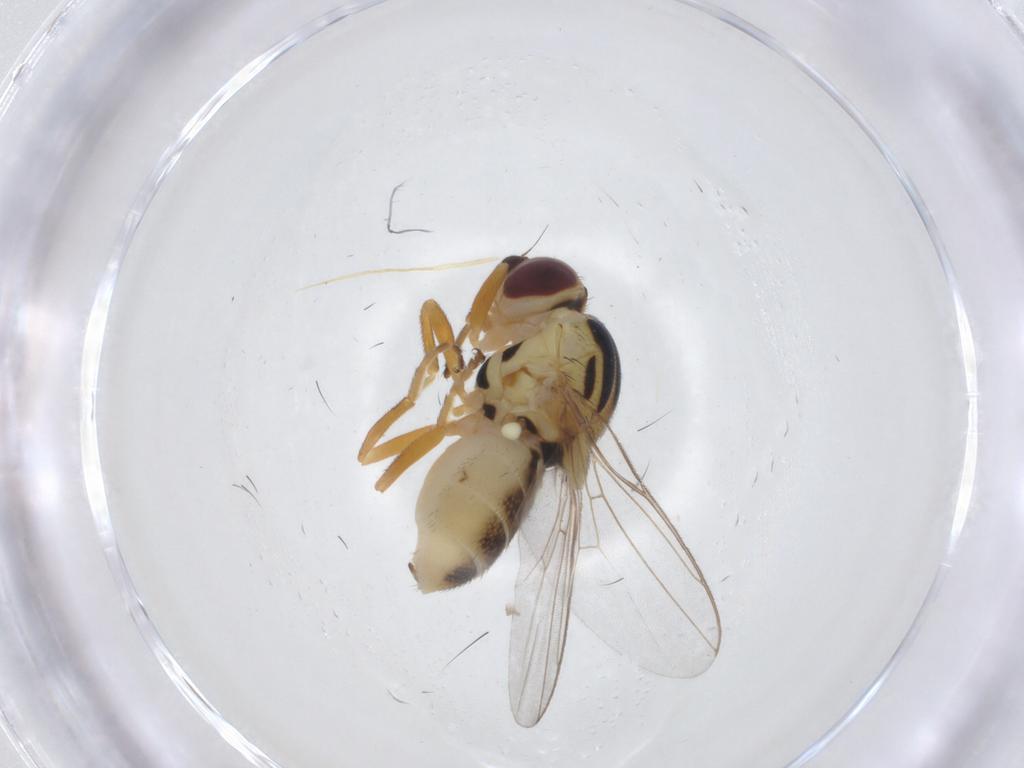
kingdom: Animalia
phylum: Arthropoda
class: Insecta
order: Diptera
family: Chloropidae
